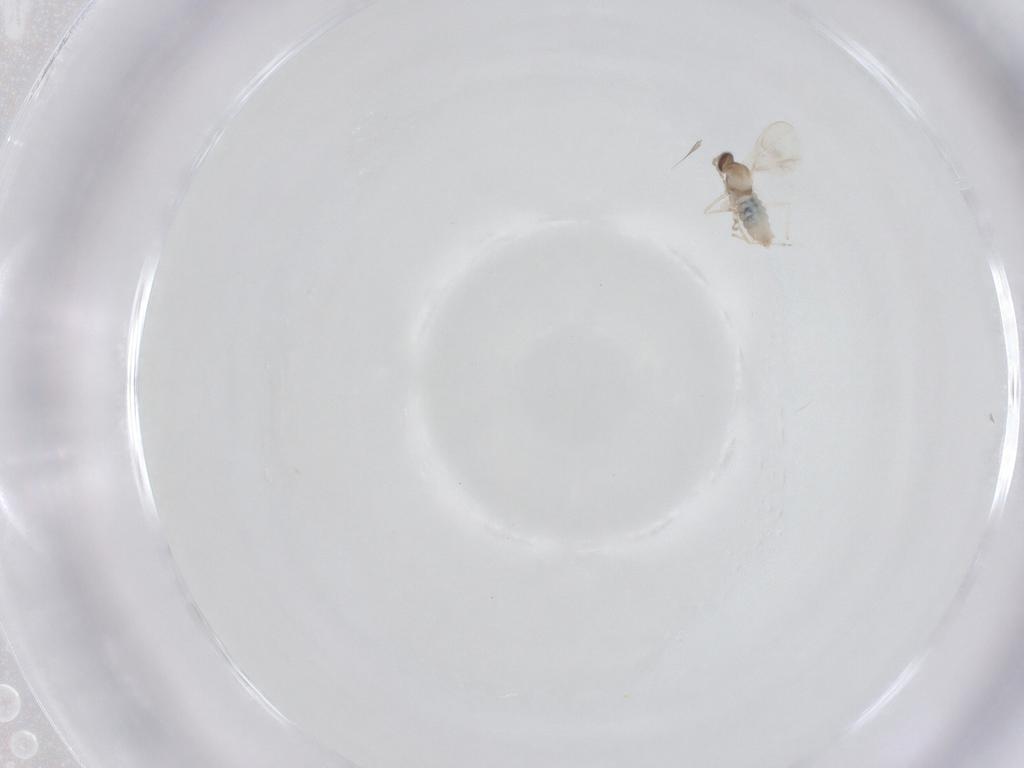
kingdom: Animalia
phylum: Arthropoda
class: Insecta
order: Diptera
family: Cecidomyiidae
